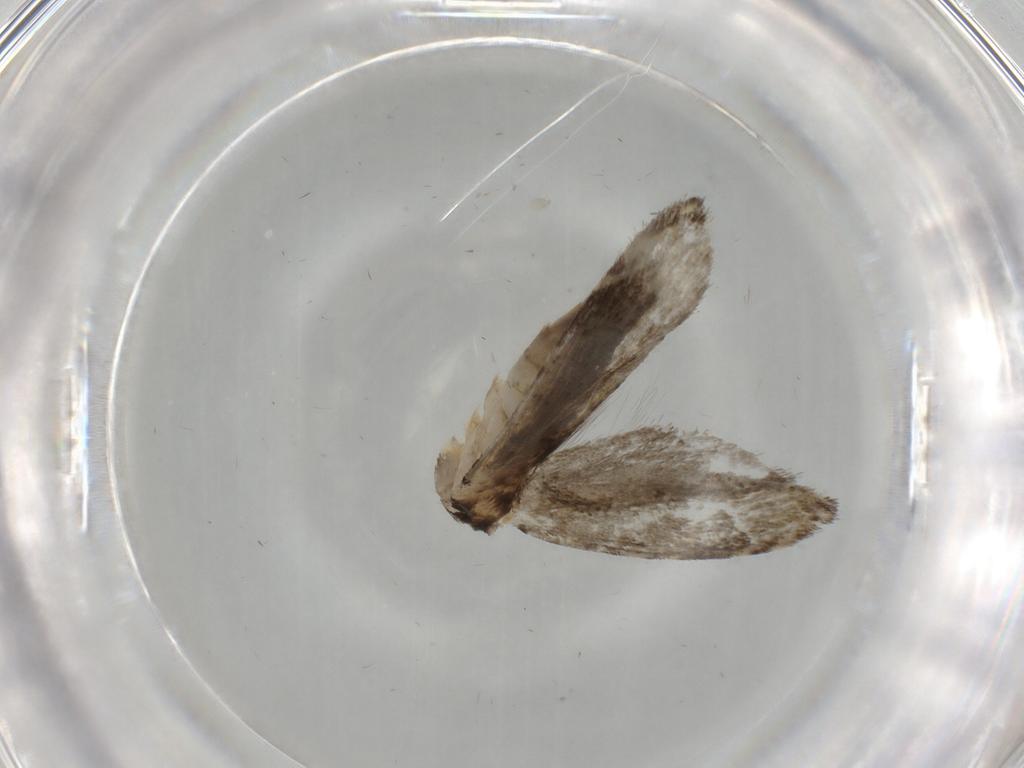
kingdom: Animalia
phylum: Arthropoda
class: Insecta
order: Lepidoptera
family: Tineidae
